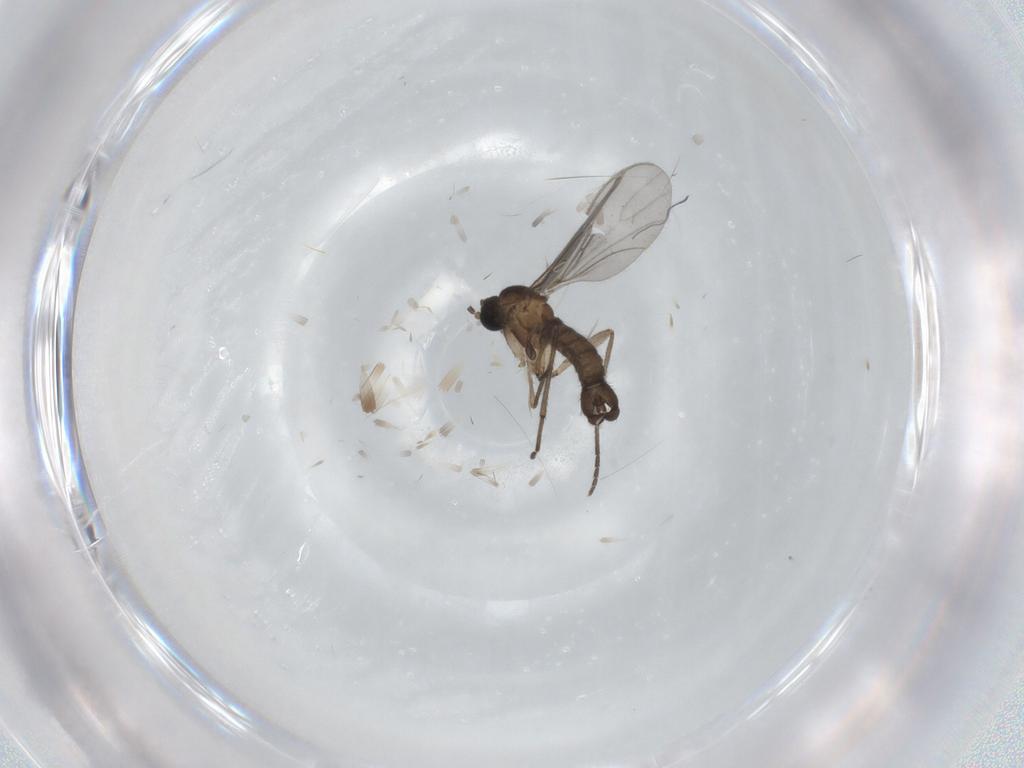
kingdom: Animalia
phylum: Arthropoda
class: Insecta
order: Diptera
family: Sciaridae
